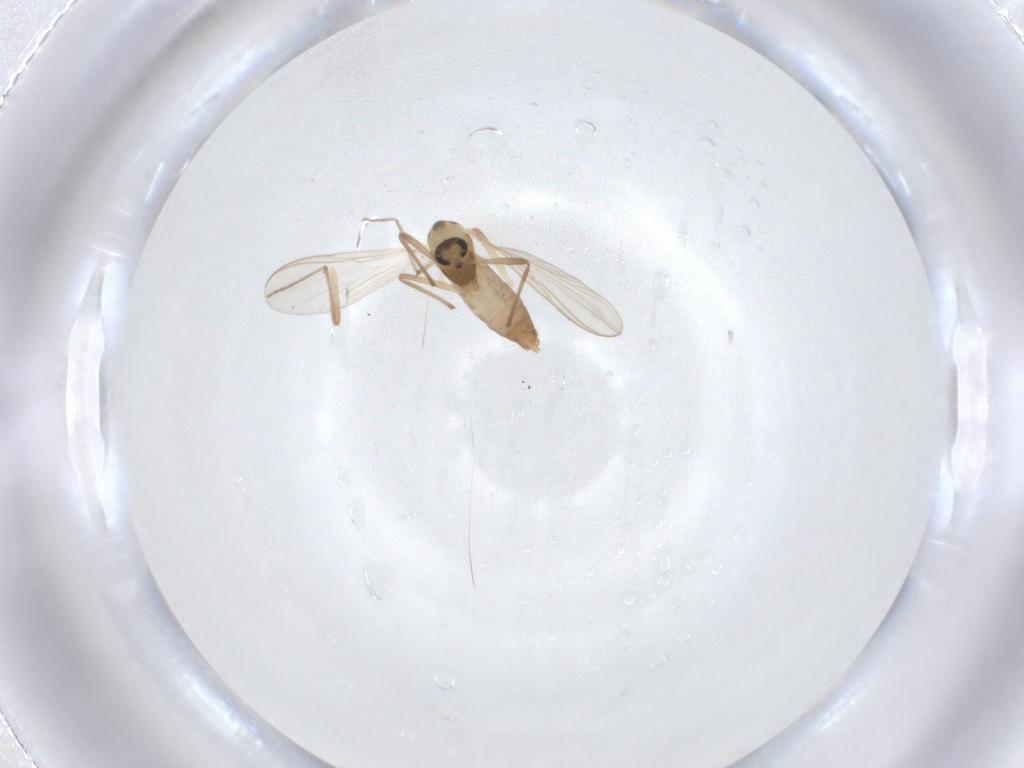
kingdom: Animalia
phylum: Arthropoda
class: Insecta
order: Diptera
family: Chironomidae
